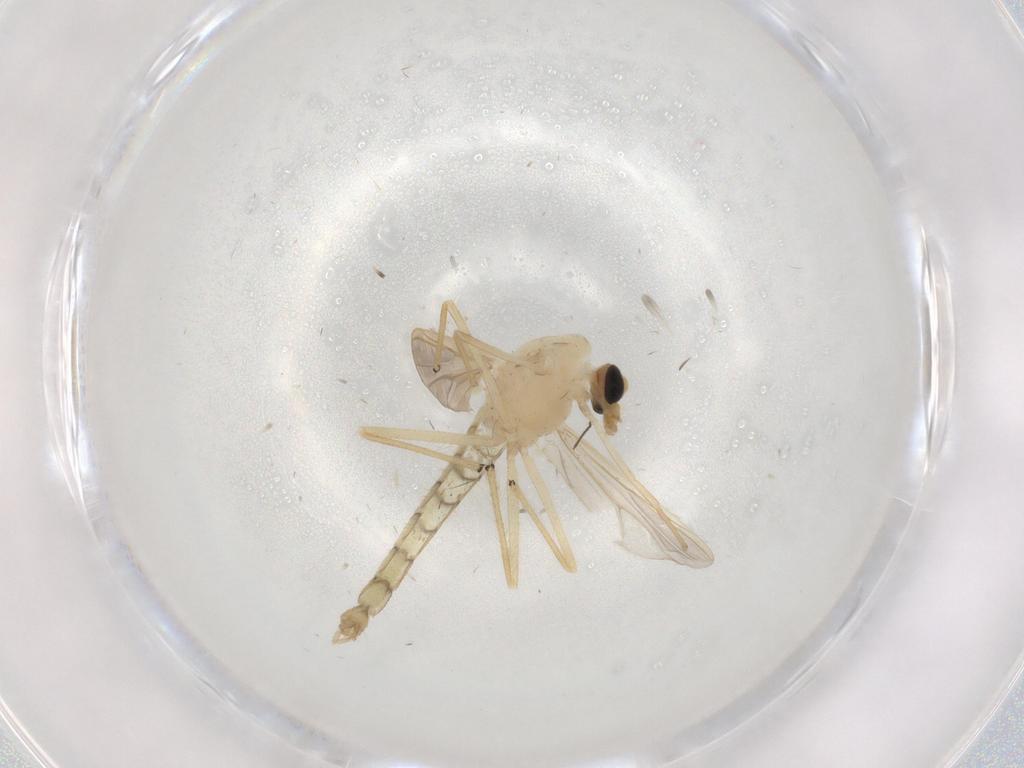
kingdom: Animalia
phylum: Arthropoda
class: Insecta
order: Diptera
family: Chironomidae
